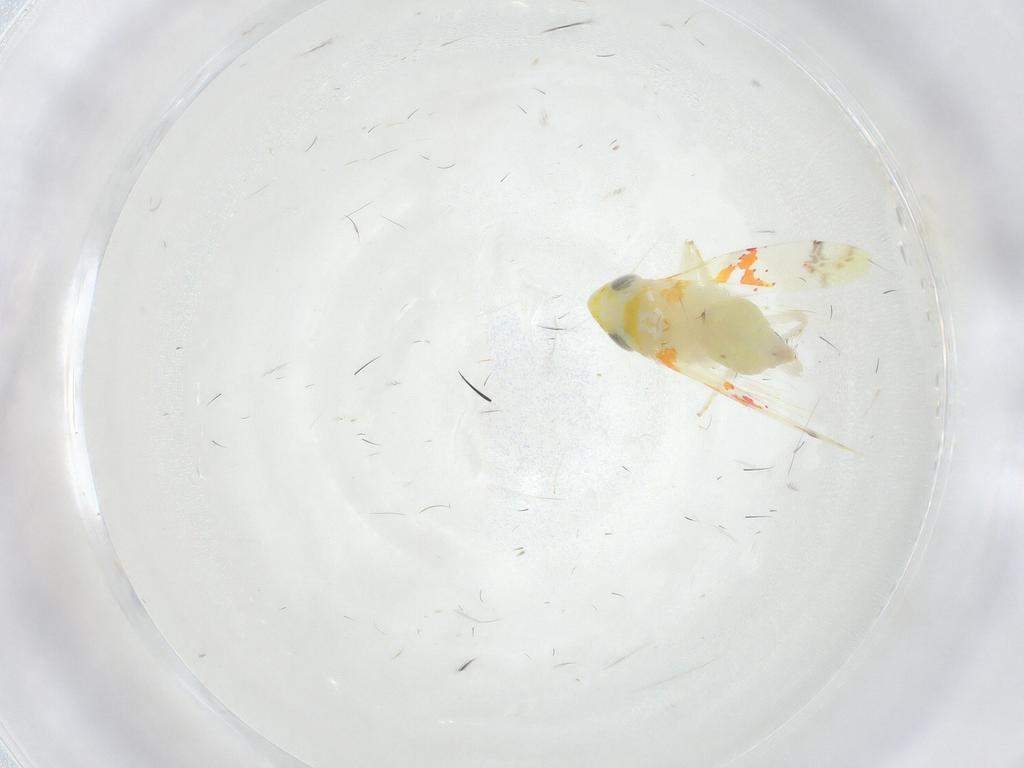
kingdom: Animalia
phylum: Arthropoda
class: Insecta
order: Hemiptera
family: Cicadellidae
